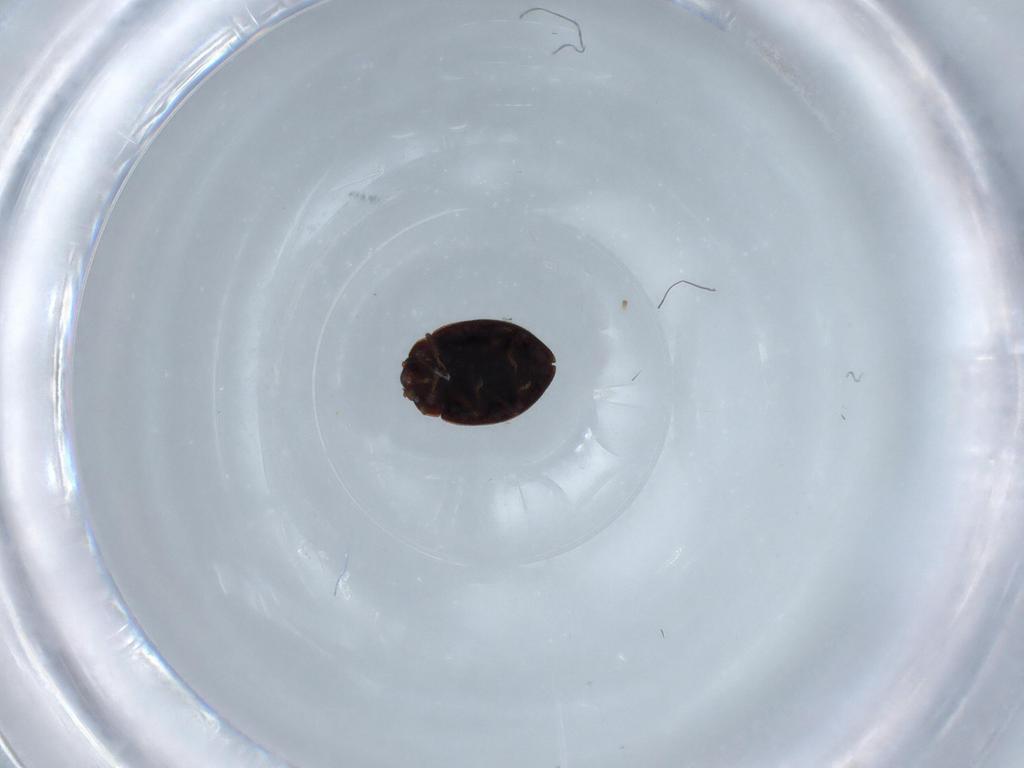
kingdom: Animalia
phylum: Arthropoda
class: Insecta
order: Coleoptera
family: Coccinellidae
